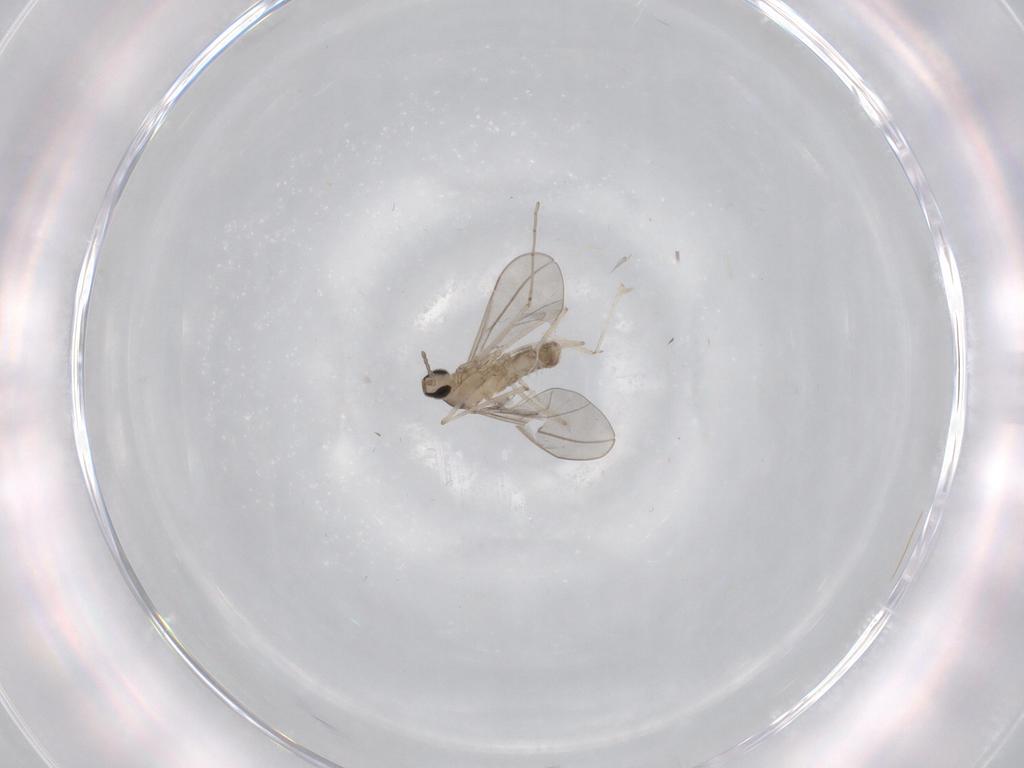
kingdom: Animalia
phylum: Arthropoda
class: Insecta
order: Diptera
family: Cecidomyiidae
